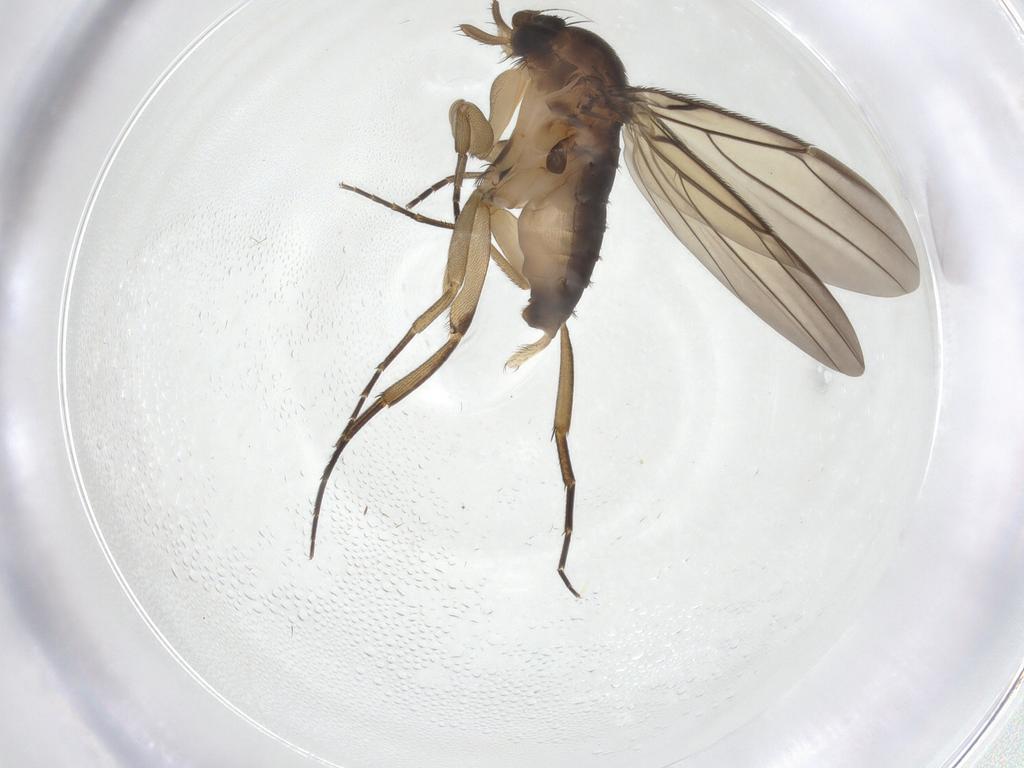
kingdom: Animalia
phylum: Arthropoda
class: Insecta
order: Diptera
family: Phoridae
